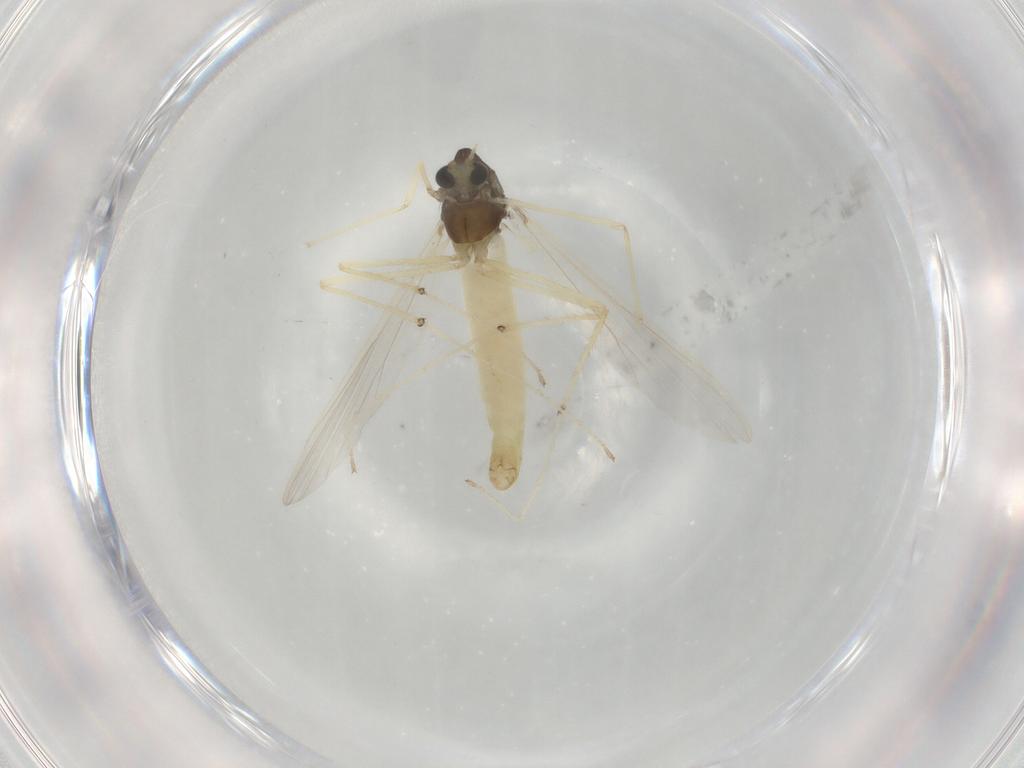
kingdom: Animalia
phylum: Arthropoda
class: Insecta
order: Diptera
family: Chironomidae
